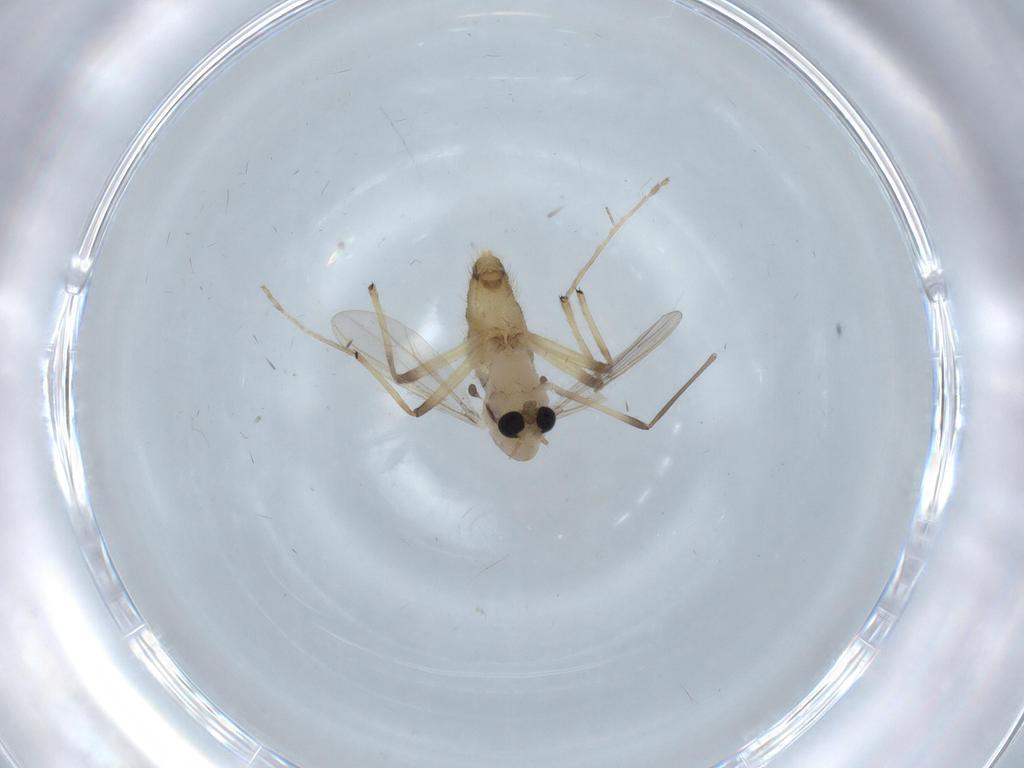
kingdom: Animalia
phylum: Arthropoda
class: Insecta
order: Diptera
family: Chironomidae
